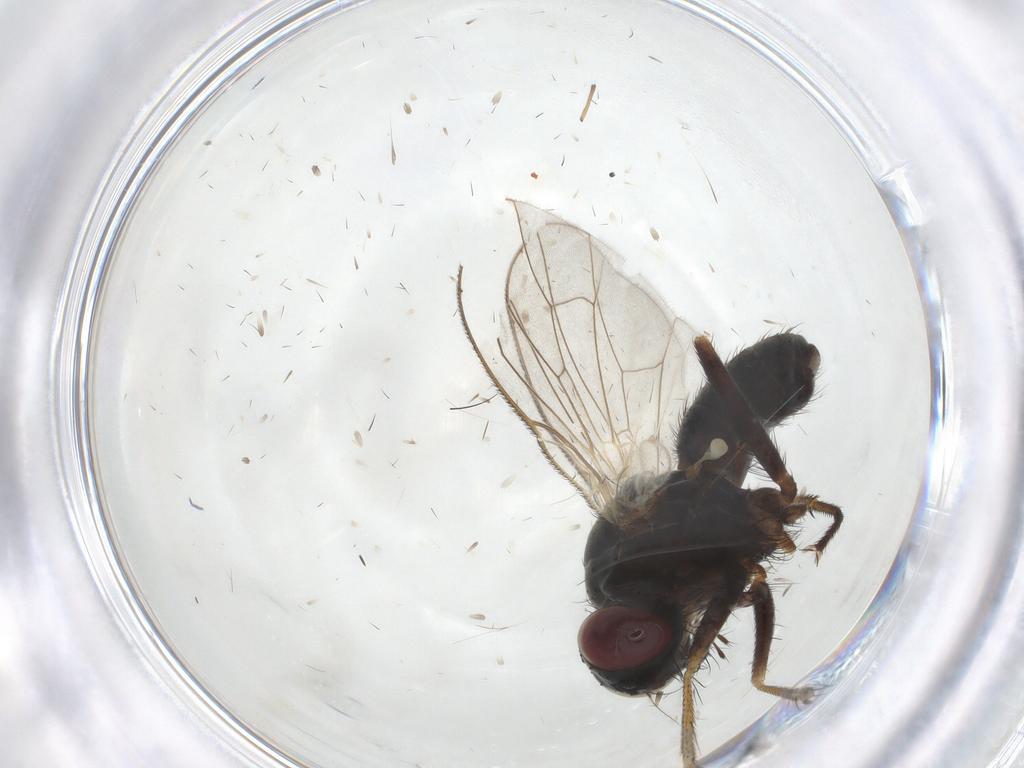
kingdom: Animalia
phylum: Arthropoda
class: Insecta
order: Diptera
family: Muscidae
